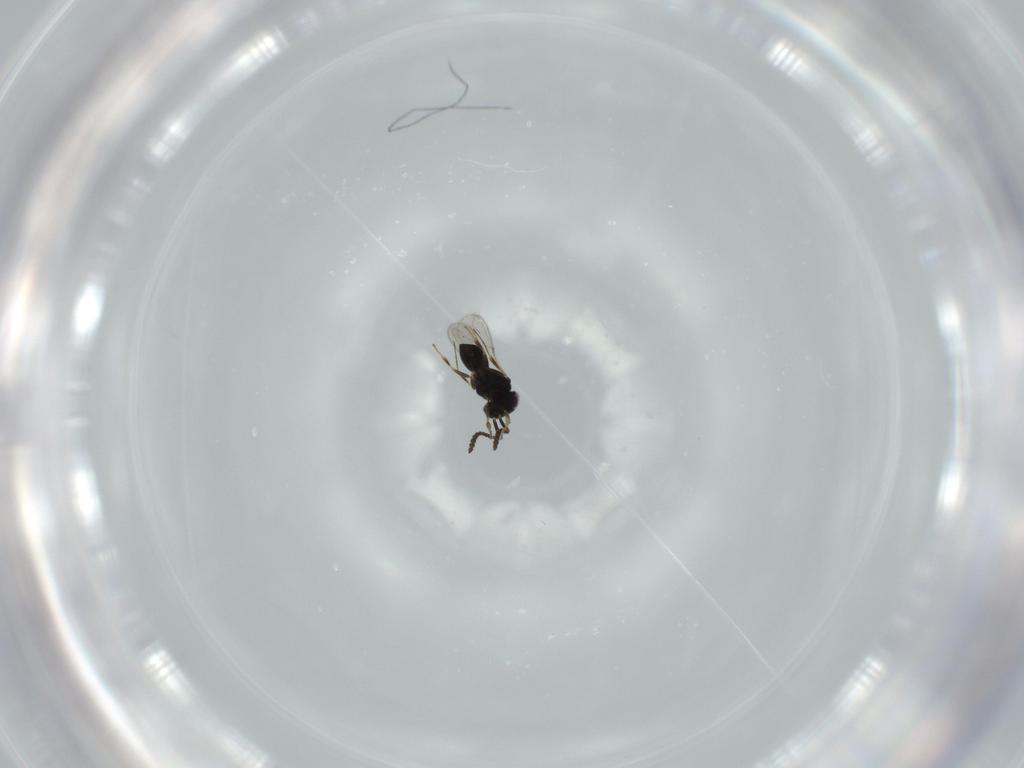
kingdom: Animalia
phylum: Arthropoda
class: Insecta
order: Hymenoptera
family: Scelionidae
